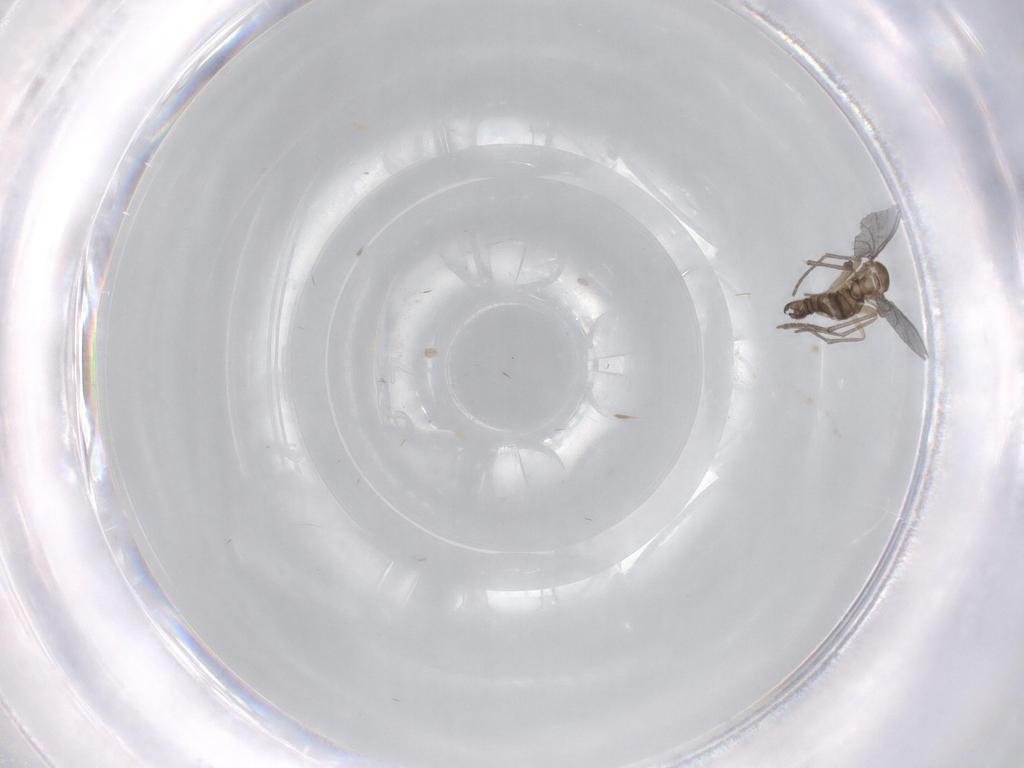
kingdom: Animalia
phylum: Arthropoda
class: Insecta
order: Diptera
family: Sciaridae
